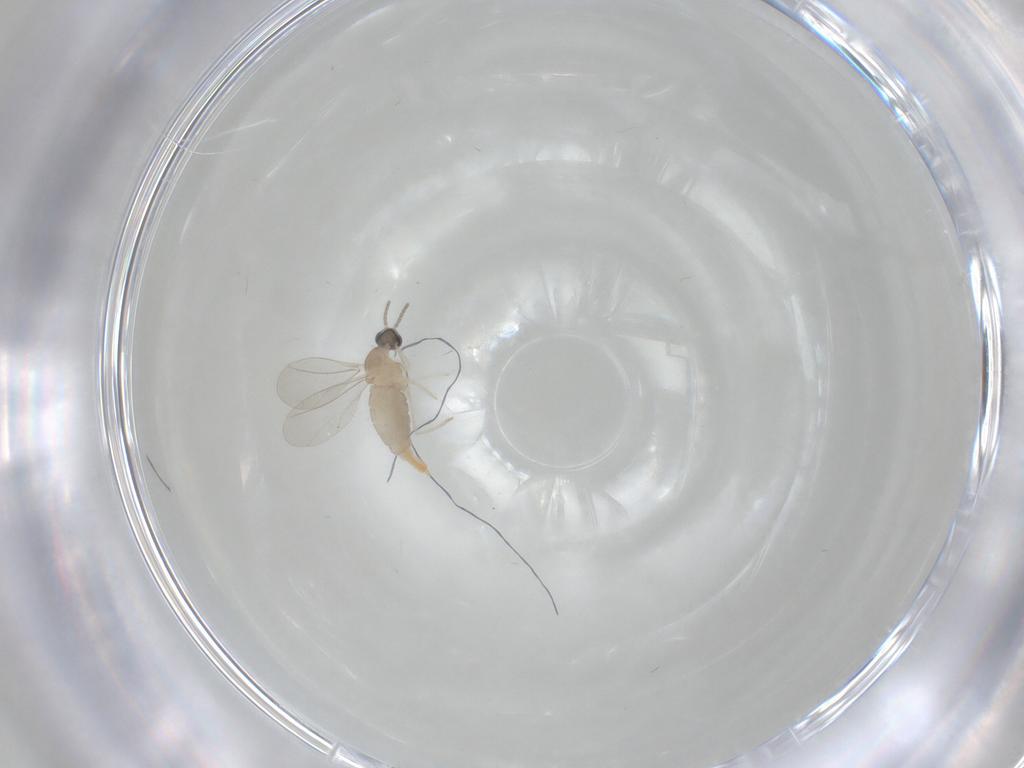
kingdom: Animalia
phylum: Arthropoda
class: Insecta
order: Diptera
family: Cecidomyiidae
